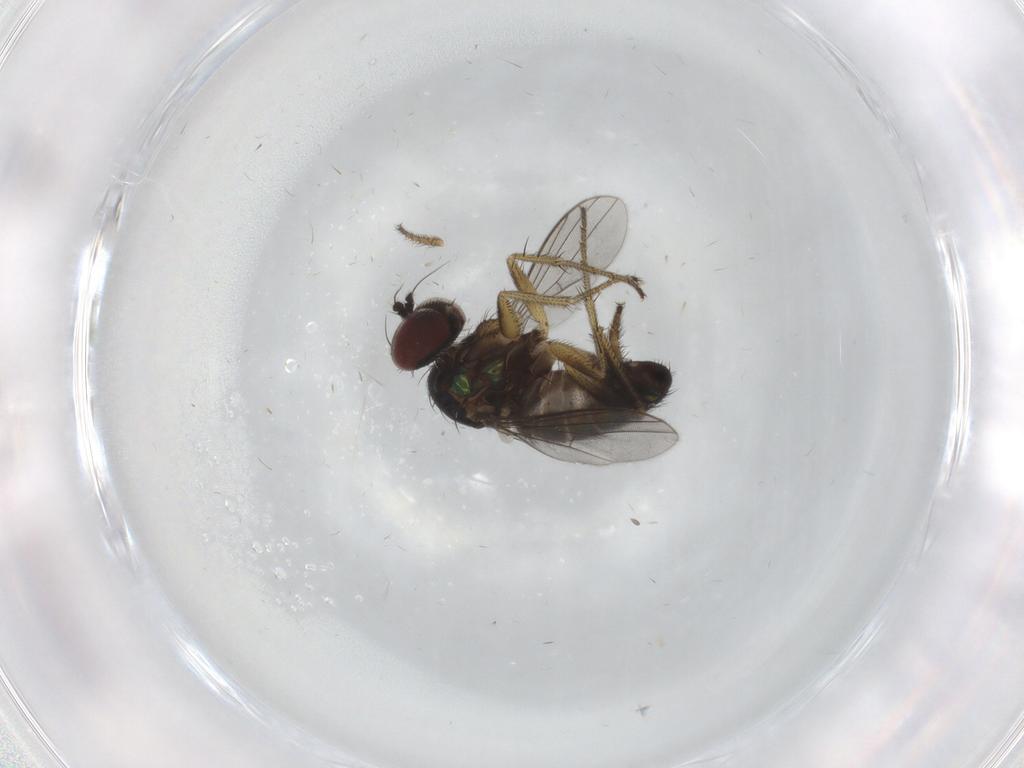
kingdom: Animalia
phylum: Arthropoda
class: Insecta
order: Diptera
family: Dolichopodidae
